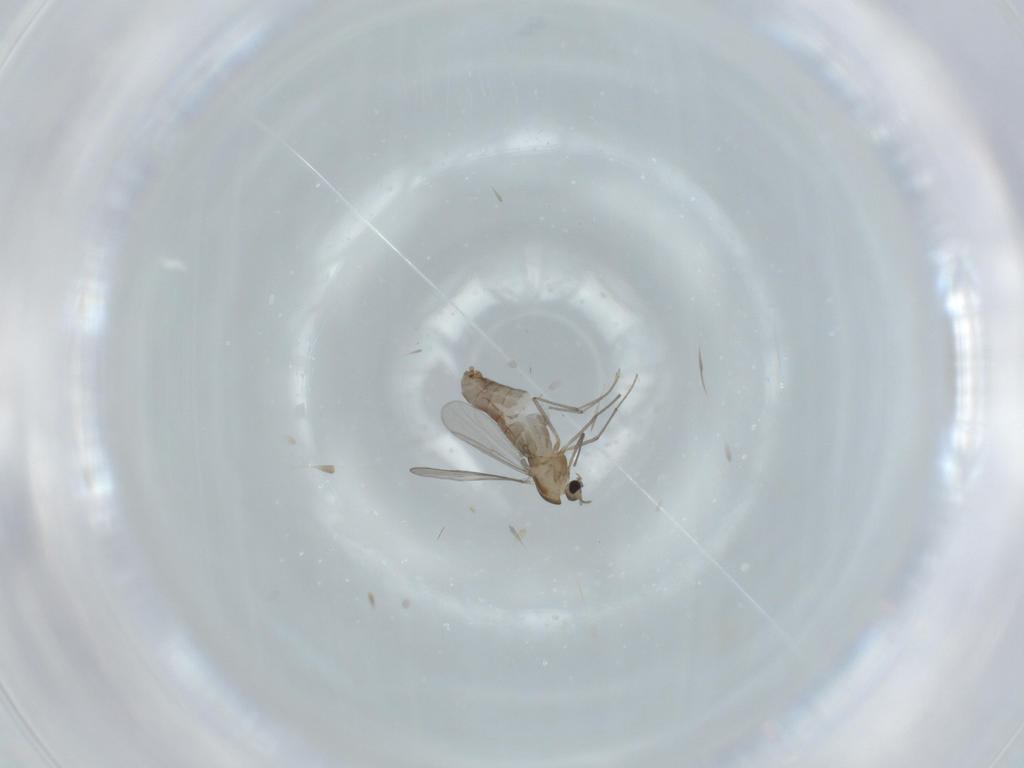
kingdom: Animalia
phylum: Arthropoda
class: Insecta
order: Diptera
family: Chironomidae
